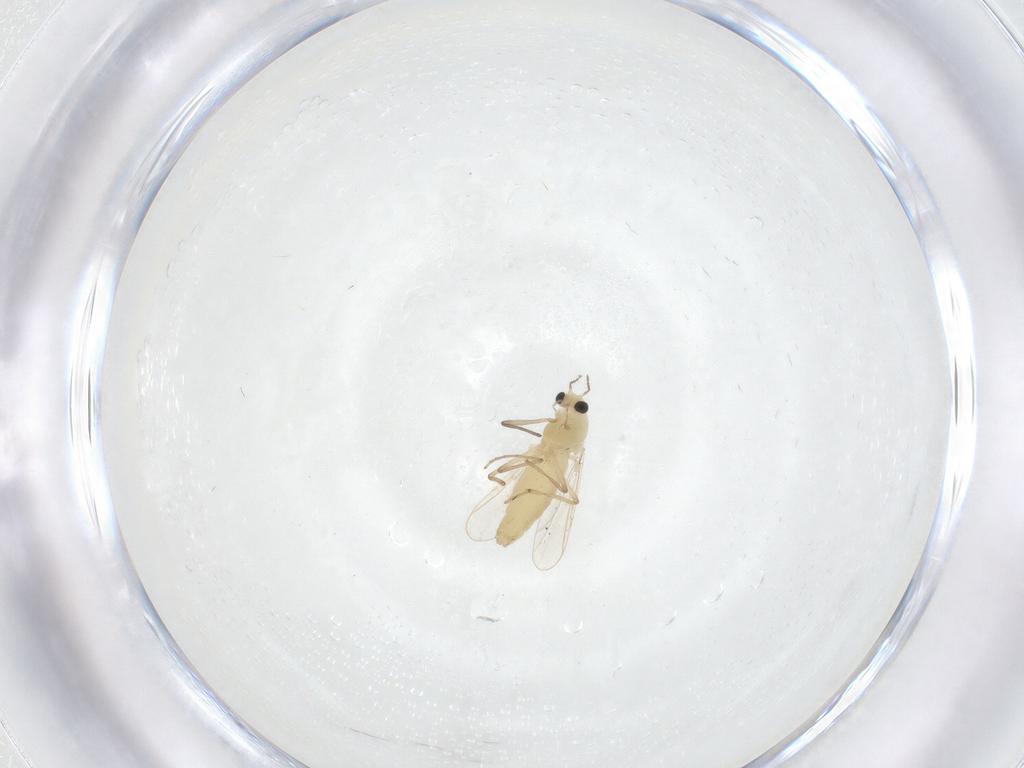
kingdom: Animalia
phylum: Arthropoda
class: Insecta
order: Diptera
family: Chironomidae
